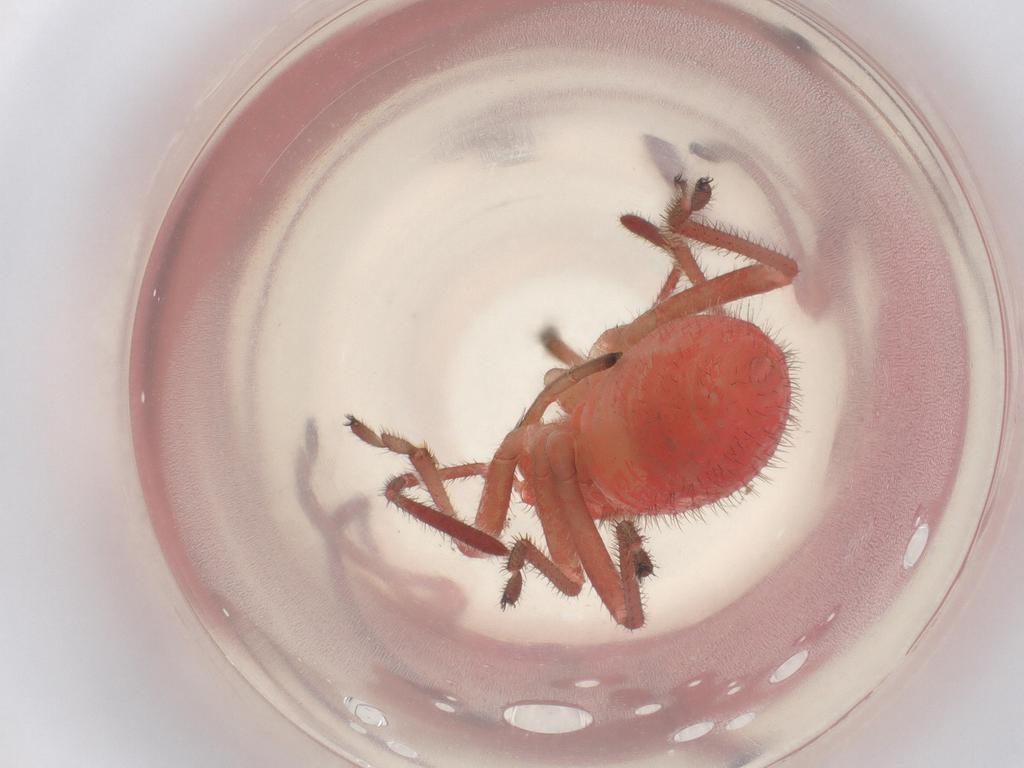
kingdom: Animalia
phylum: Arthropoda
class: Insecta
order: Hemiptera
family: Rhopalidae
